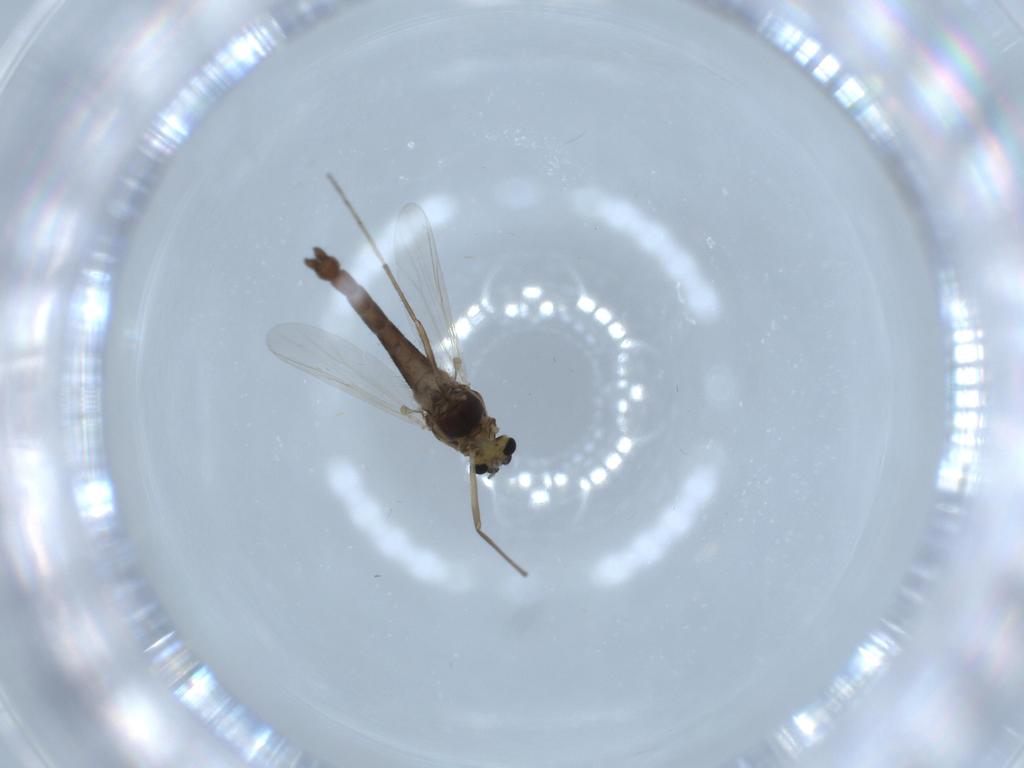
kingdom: Animalia
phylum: Arthropoda
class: Insecta
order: Diptera
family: Chironomidae
